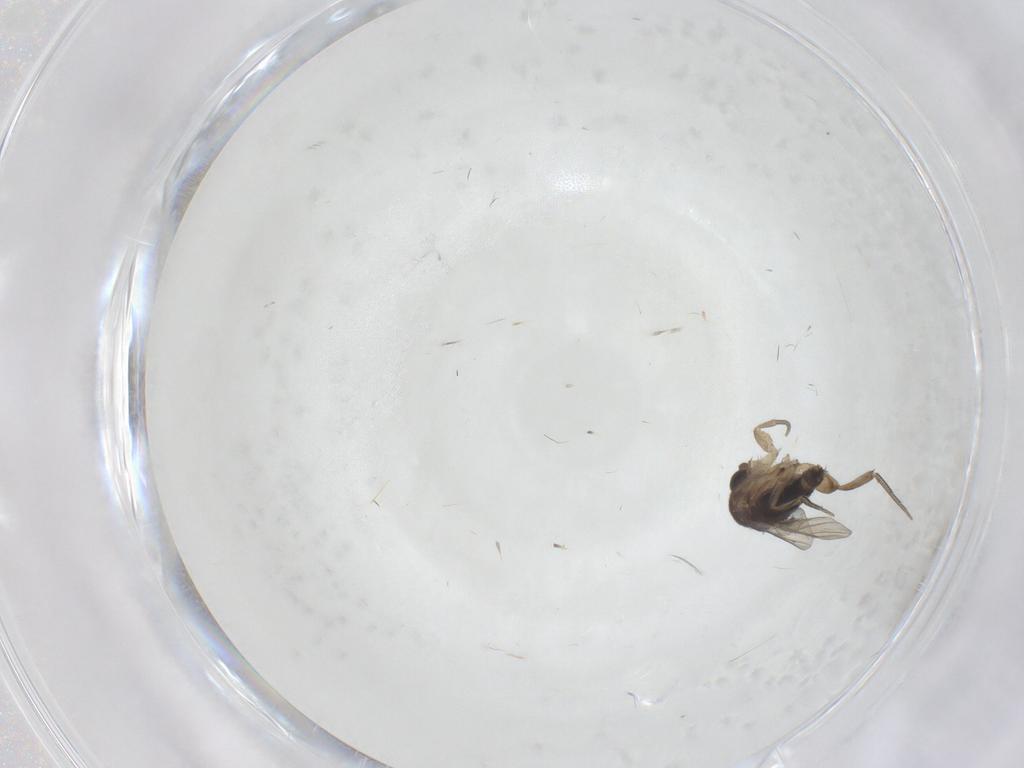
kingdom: Animalia
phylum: Arthropoda
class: Insecta
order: Diptera
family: Phoridae
